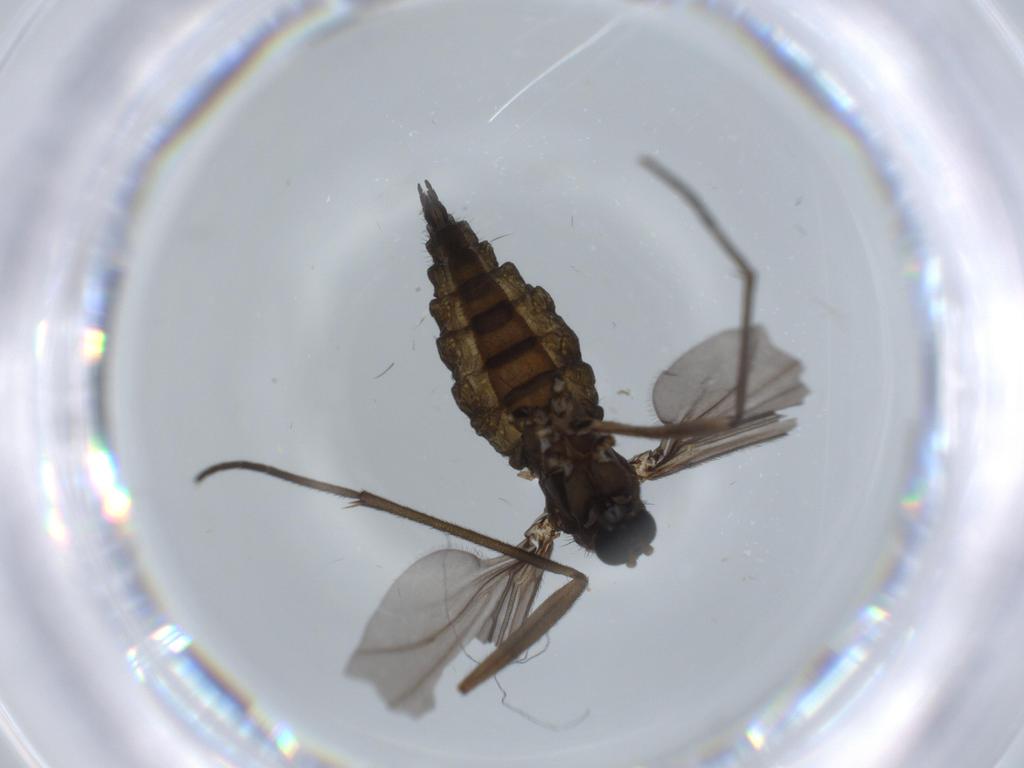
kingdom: Animalia
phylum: Arthropoda
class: Insecta
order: Diptera
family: Sciaridae
